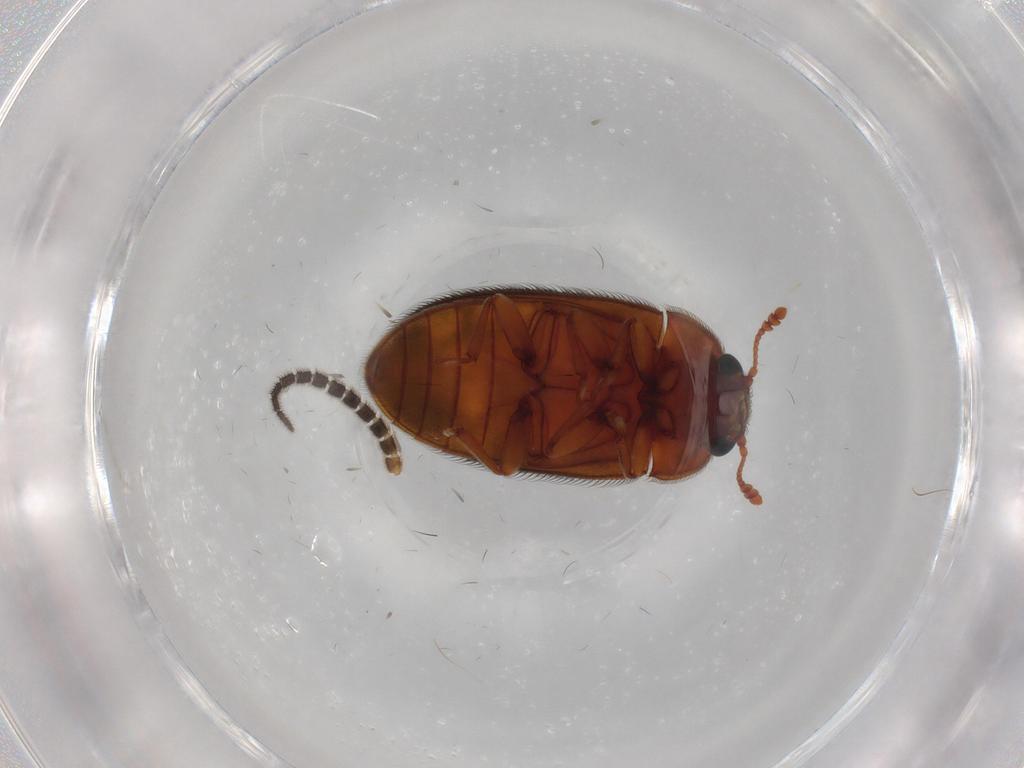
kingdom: Animalia
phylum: Arthropoda
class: Insecta
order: Coleoptera
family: Biphyllidae
